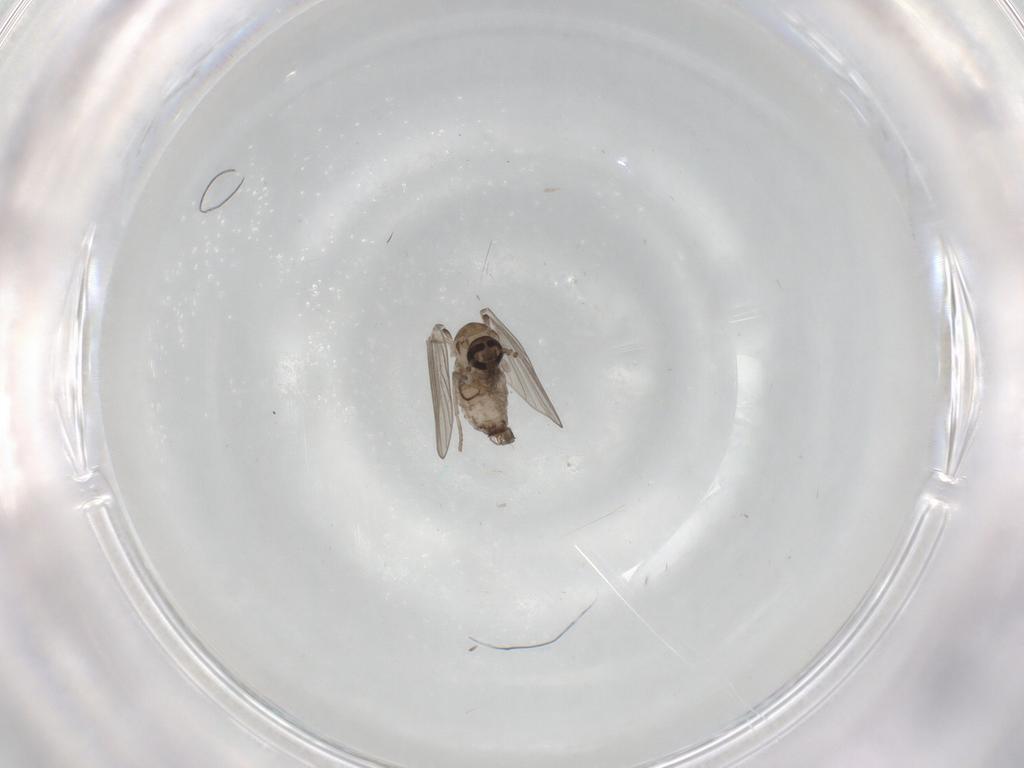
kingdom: Animalia
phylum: Arthropoda
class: Insecta
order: Diptera
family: Psychodidae
